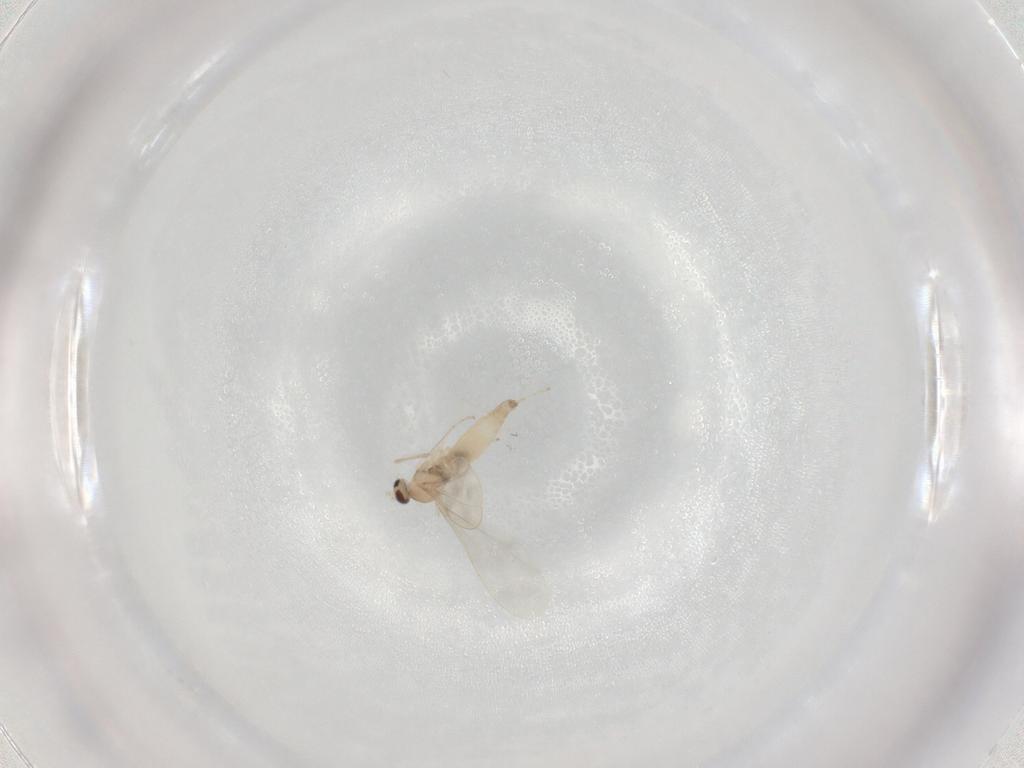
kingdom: Animalia
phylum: Arthropoda
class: Insecta
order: Diptera
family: Cecidomyiidae
